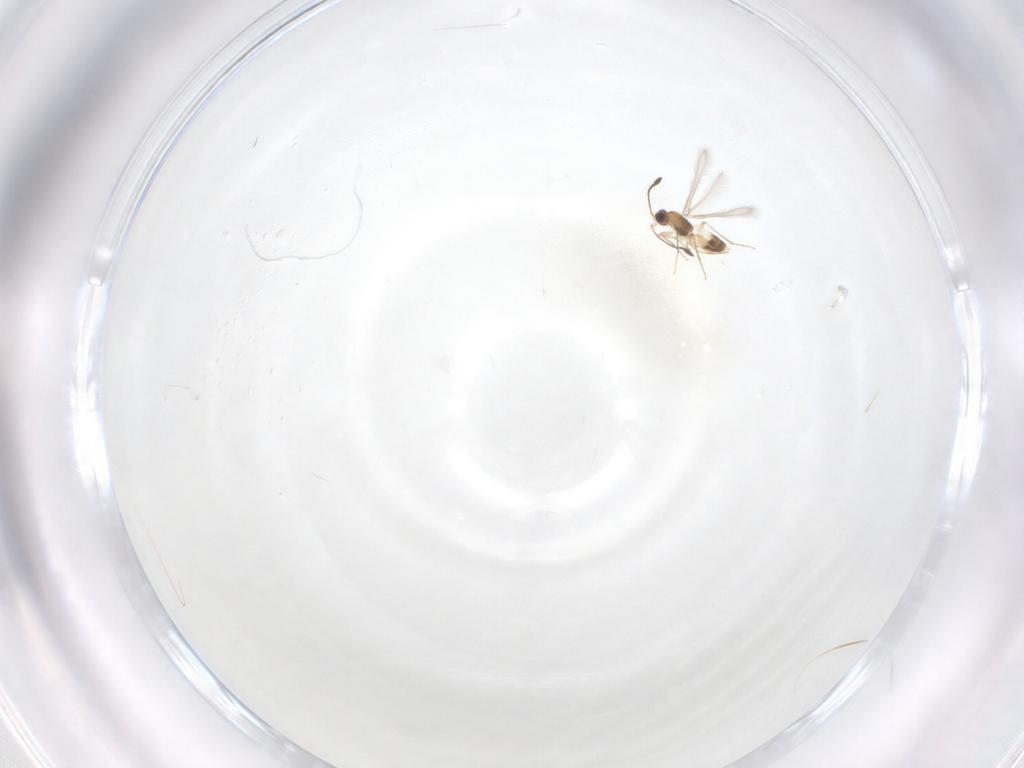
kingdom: Animalia
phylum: Arthropoda
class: Insecta
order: Hymenoptera
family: Mymaridae
